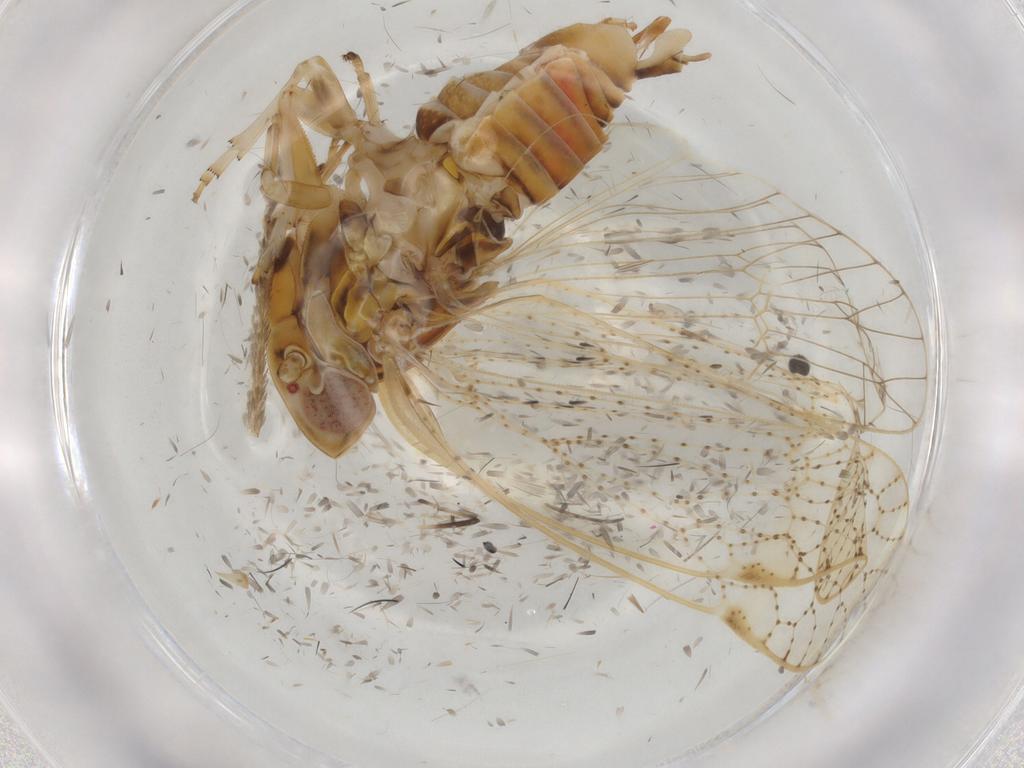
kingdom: Animalia
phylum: Arthropoda
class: Insecta
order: Hemiptera
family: Cixiidae
